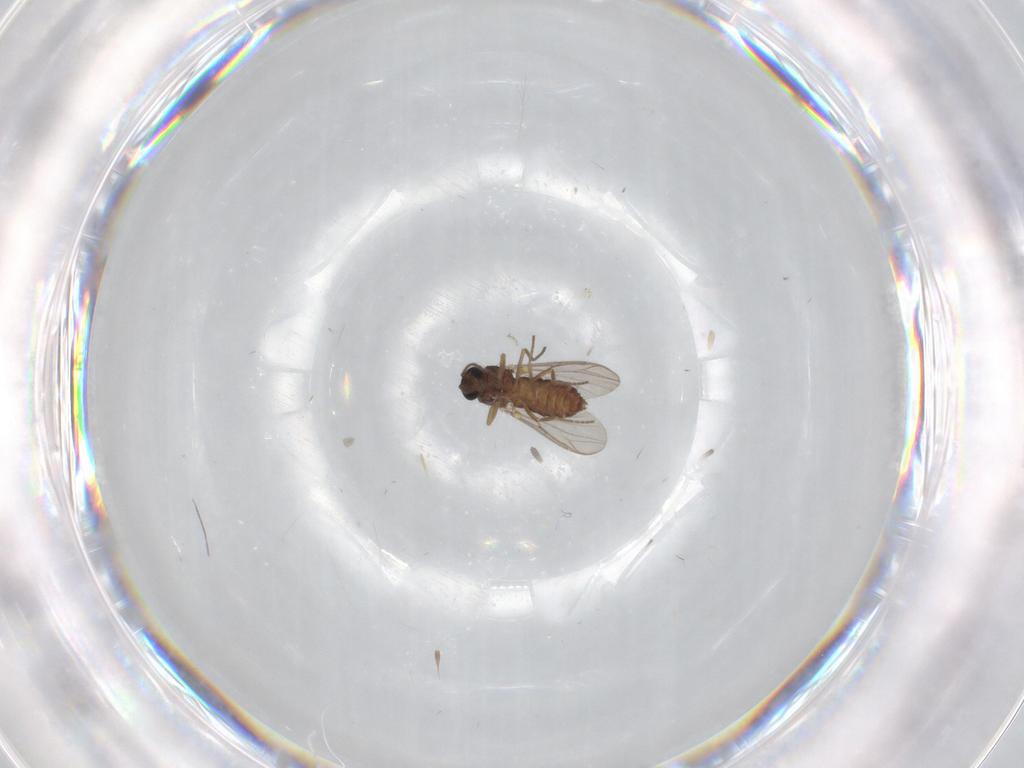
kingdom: Animalia
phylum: Arthropoda
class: Insecta
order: Diptera
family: Ceratopogonidae
